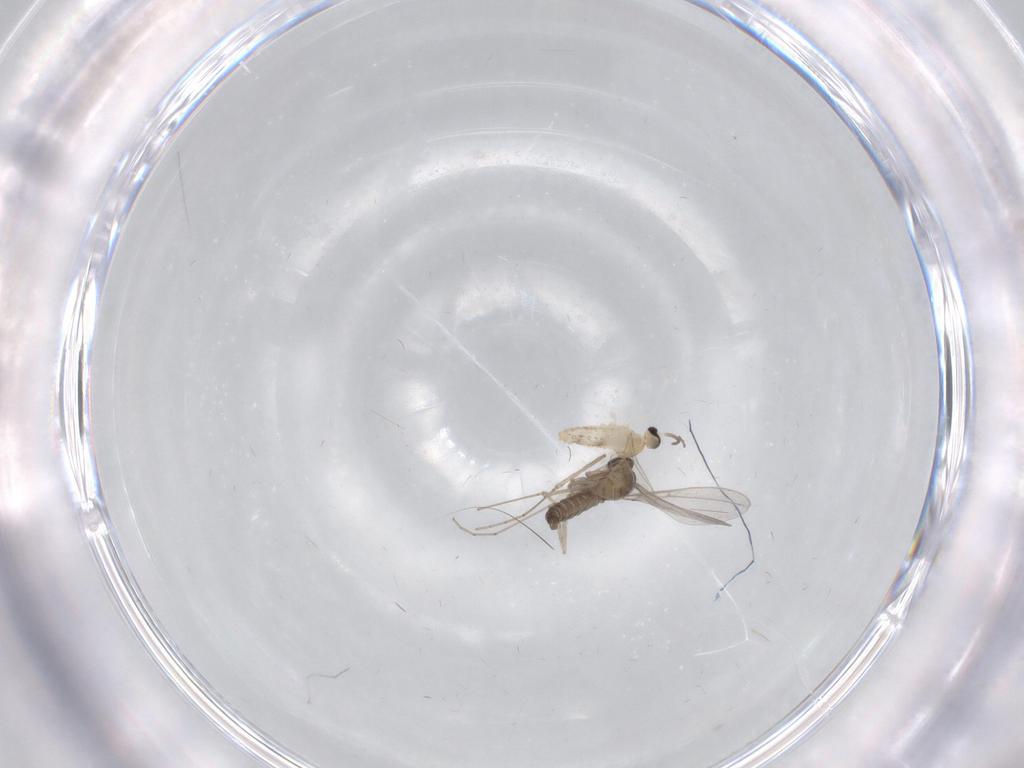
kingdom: Animalia
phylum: Arthropoda
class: Insecta
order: Diptera
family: Cecidomyiidae
